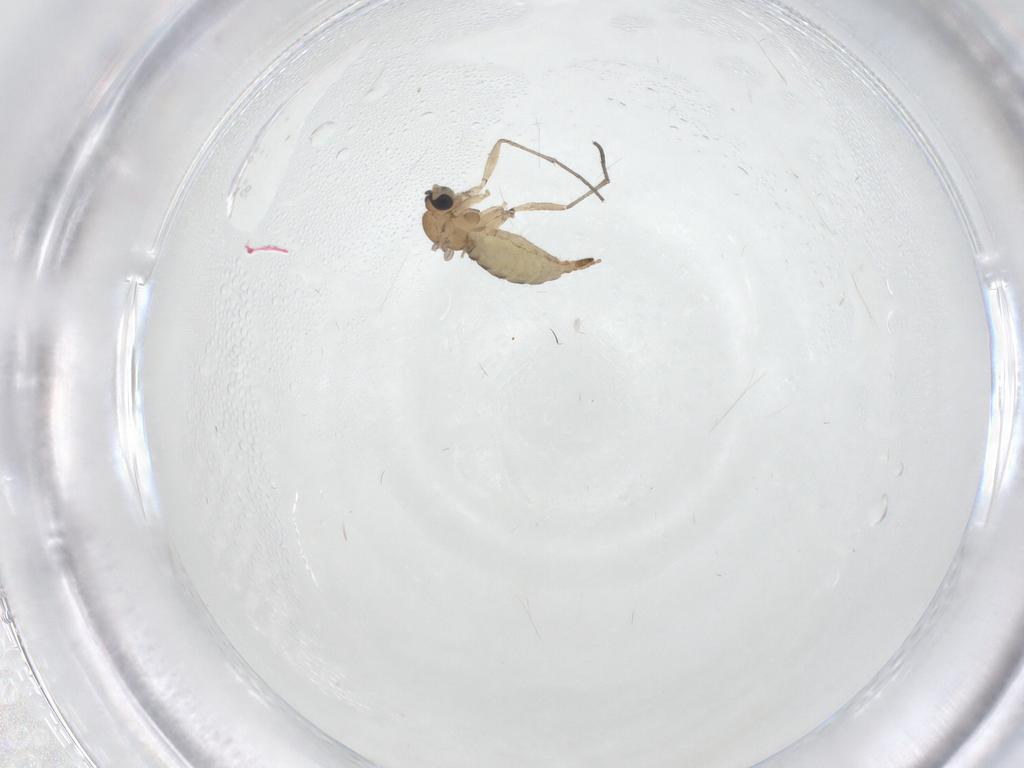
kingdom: Animalia
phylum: Arthropoda
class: Insecta
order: Diptera
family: Sciaridae
